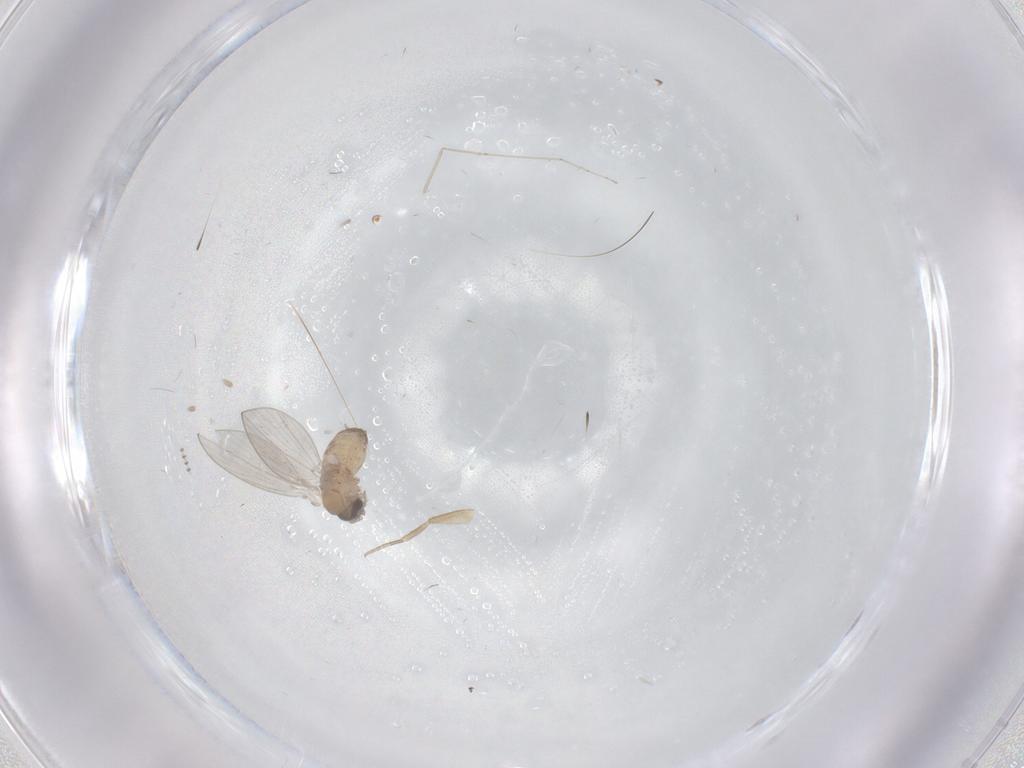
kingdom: Animalia
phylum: Arthropoda
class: Insecta
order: Diptera
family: Phoridae
